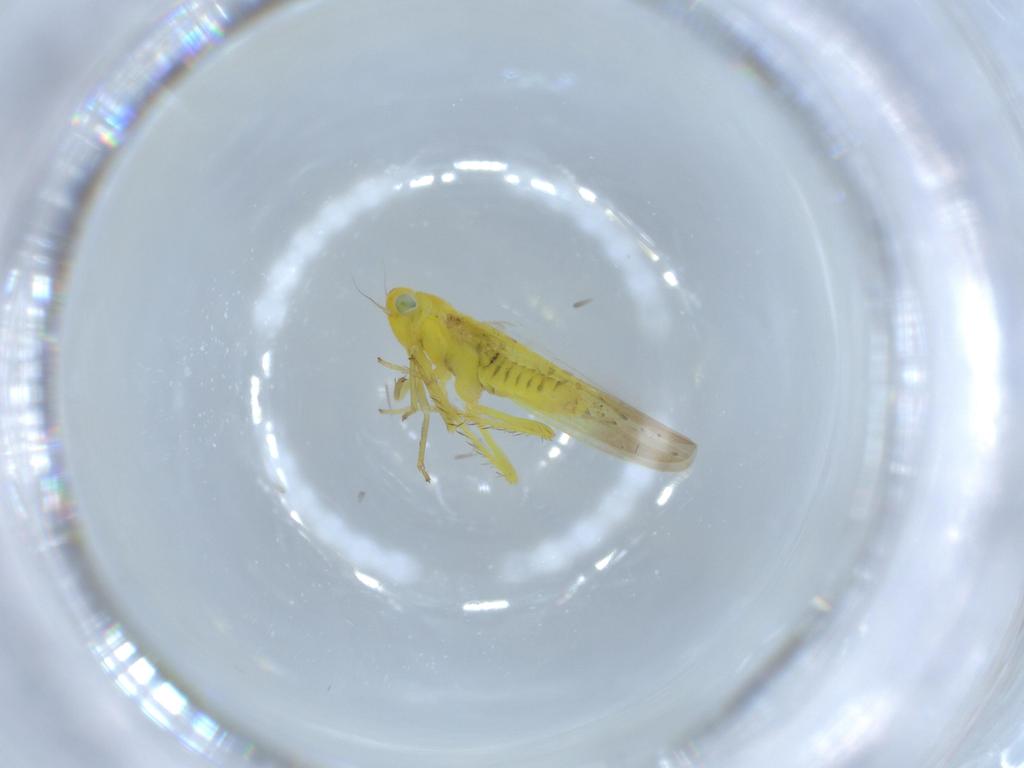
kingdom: Animalia
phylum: Arthropoda
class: Insecta
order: Hemiptera
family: Cicadellidae
